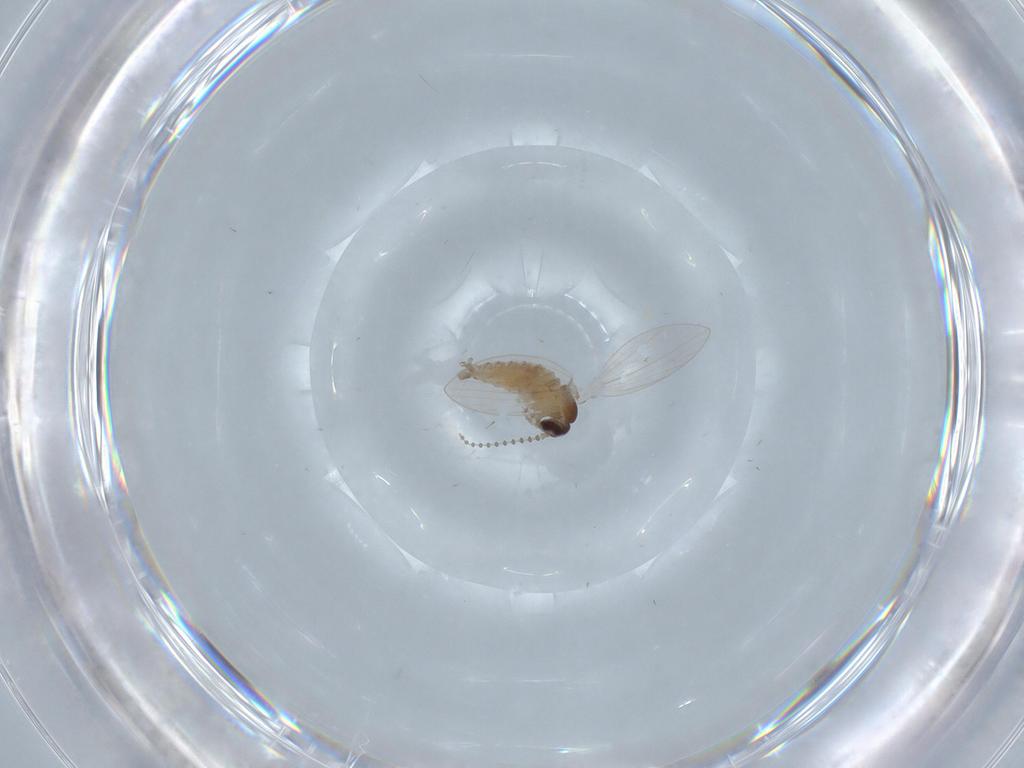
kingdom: Animalia
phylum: Arthropoda
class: Insecta
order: Diptera
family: Psychodidae
